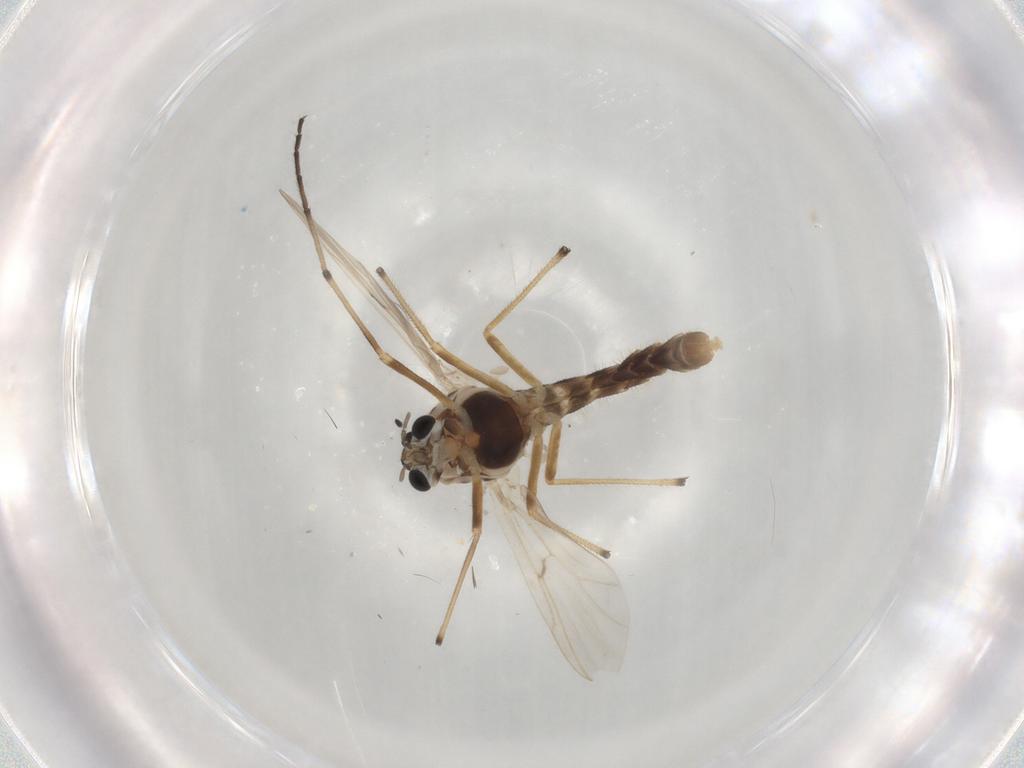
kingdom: Animalia
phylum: Arthropoda
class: Insecta
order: Diptera
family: Chironomidae
